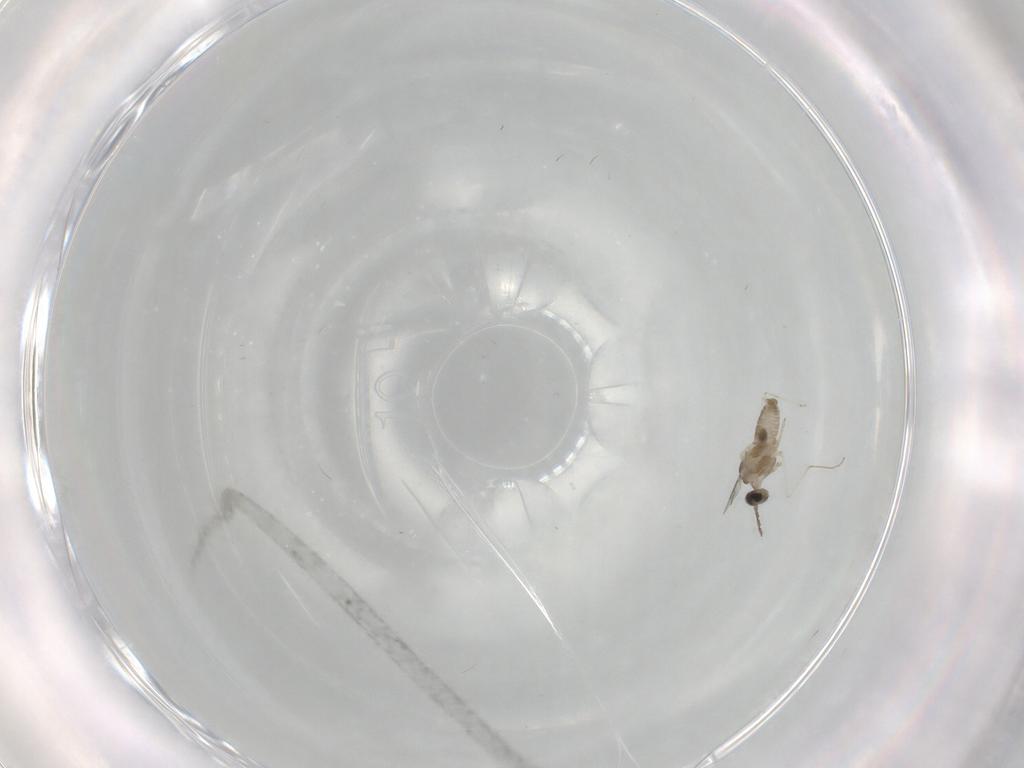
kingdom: Animalia
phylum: Arthropoda
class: Insecta
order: Diptera
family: Cecidomyiidae
